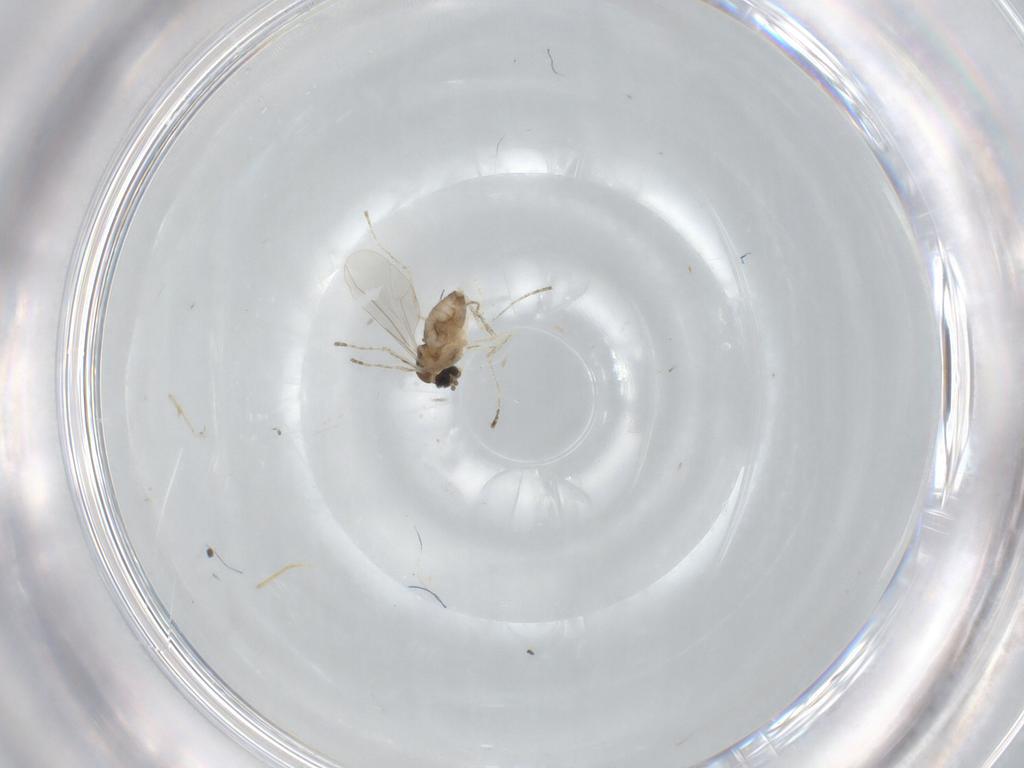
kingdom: Animalia
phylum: Arthropoda
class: Insecta
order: Diptera
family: Cecidomyiidae
